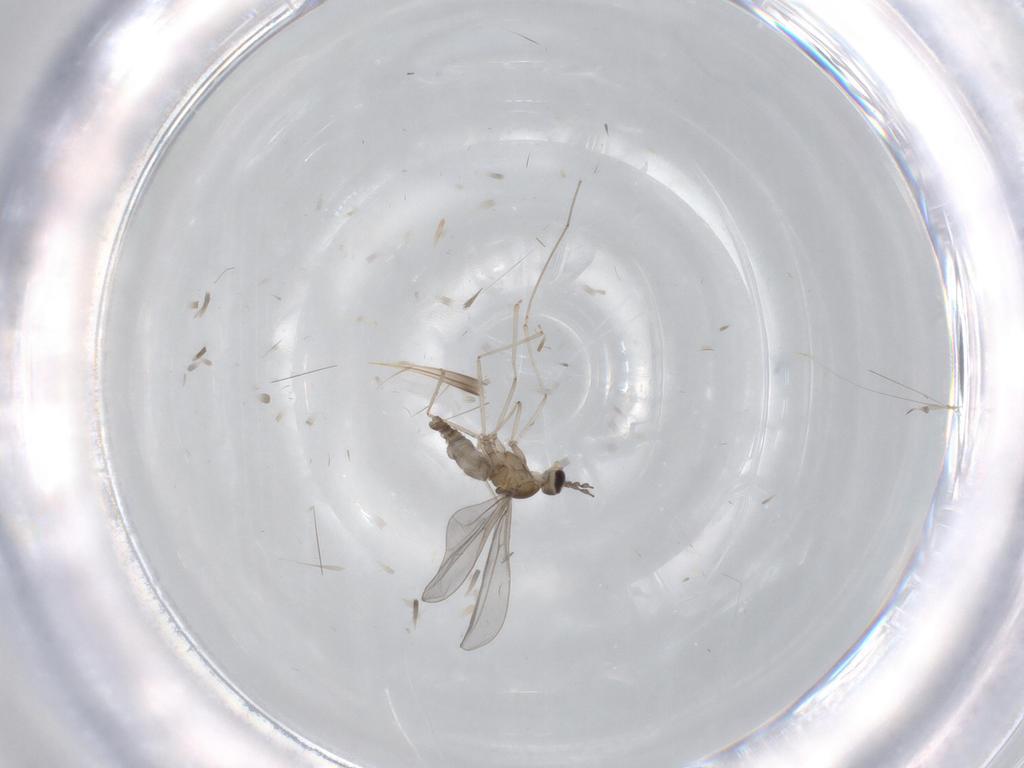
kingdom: Animalia
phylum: Arthropoda
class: Insecta
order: Diptera
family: Cecidomyiidae
